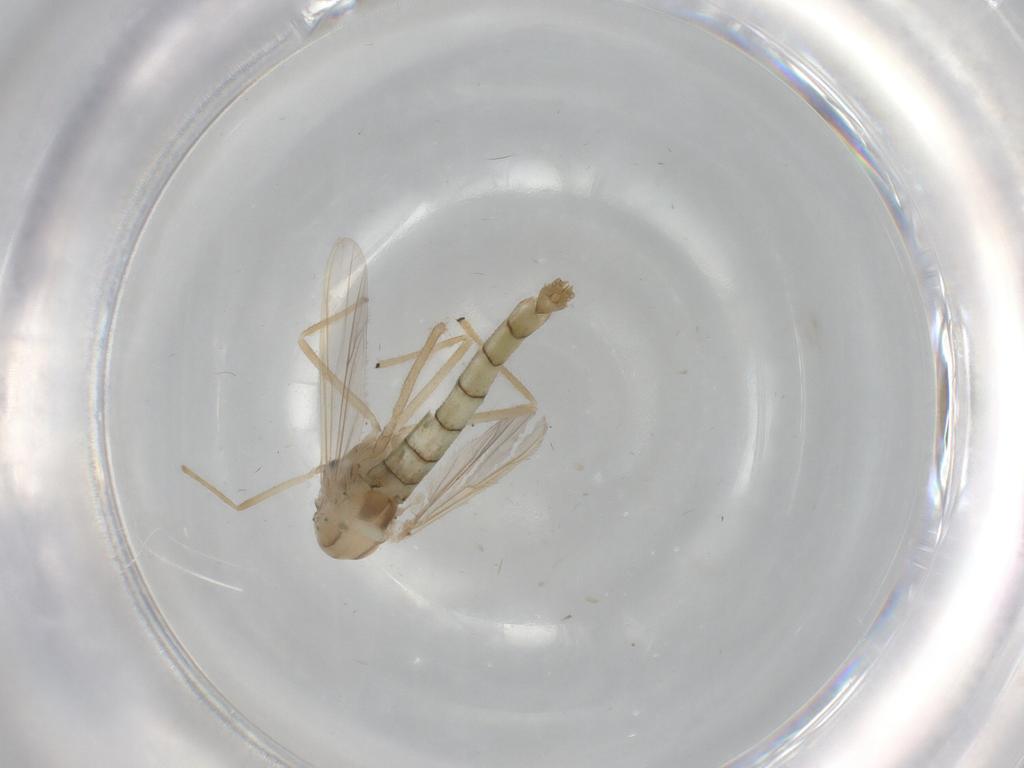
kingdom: Animalia
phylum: Arthropoda
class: Insecta
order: Diptera
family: Chironomidae
